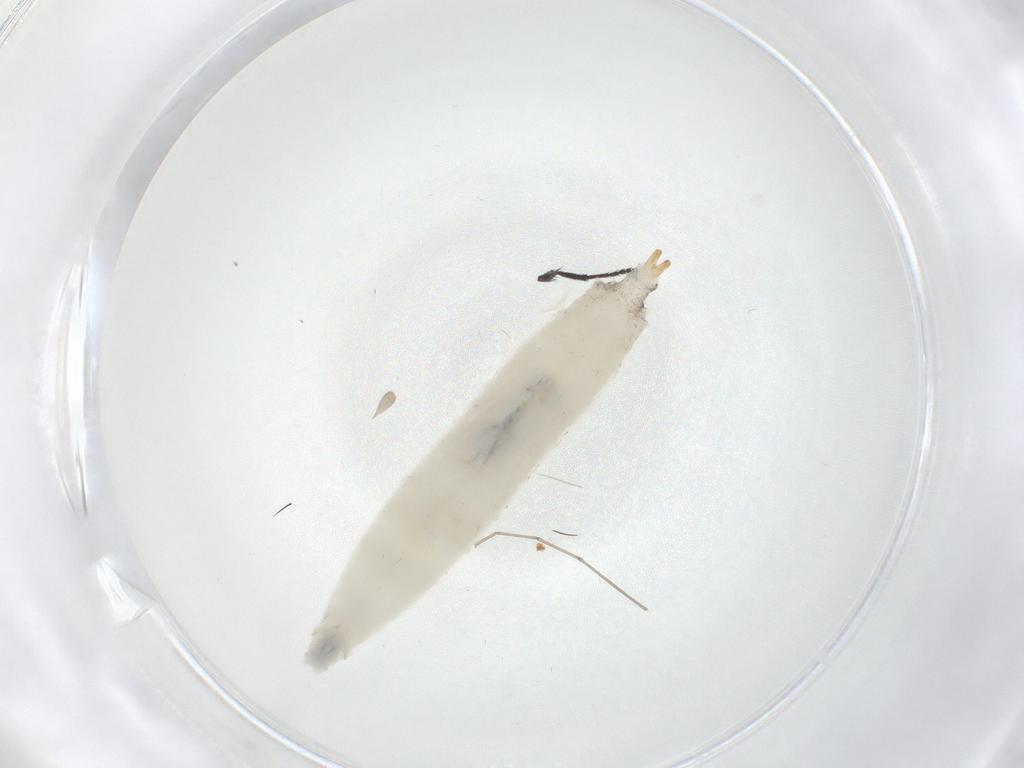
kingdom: Animalia
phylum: Arthropoda
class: Insecta
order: Diptera
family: Drosophilidae
